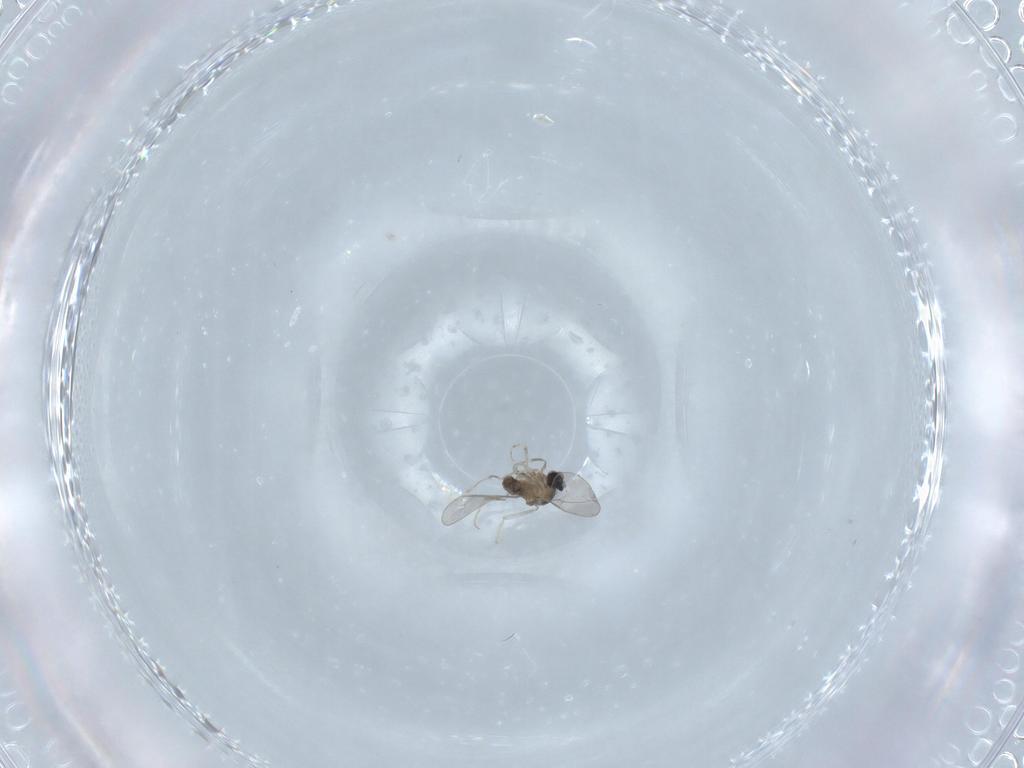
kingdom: Animalia
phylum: Arthropoda
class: Insecta
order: Diptera
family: Cecidomyiidae
